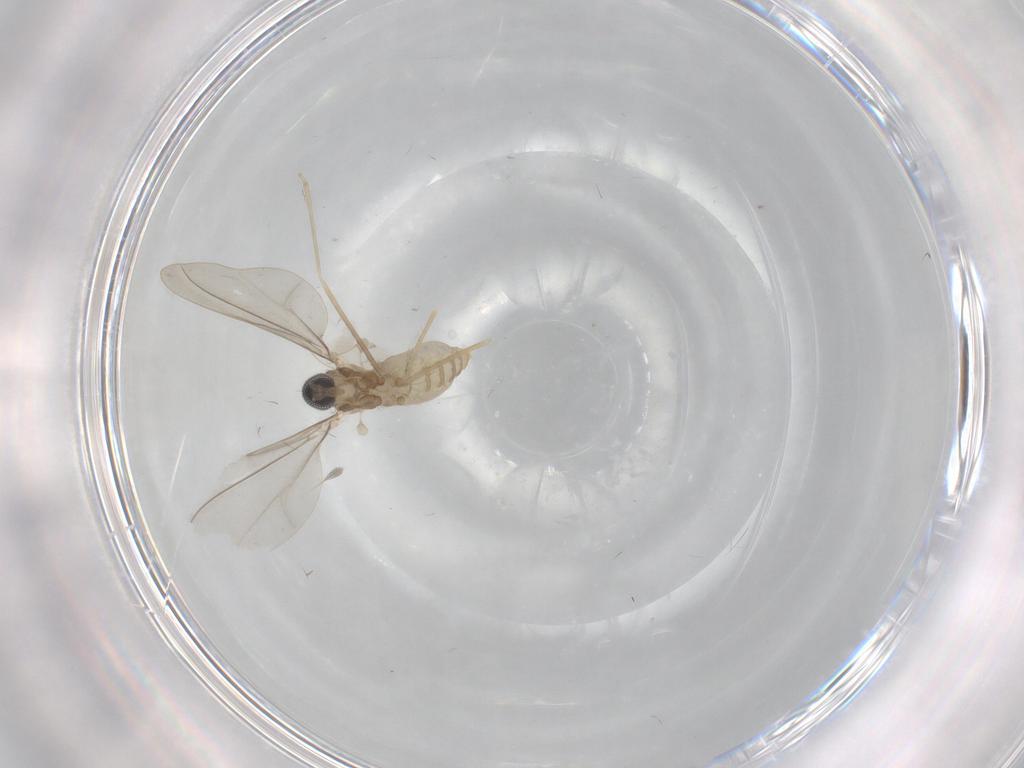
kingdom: Animalia
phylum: Arthropoda
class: Insecta
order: Diptera
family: Cecidomyiidae
